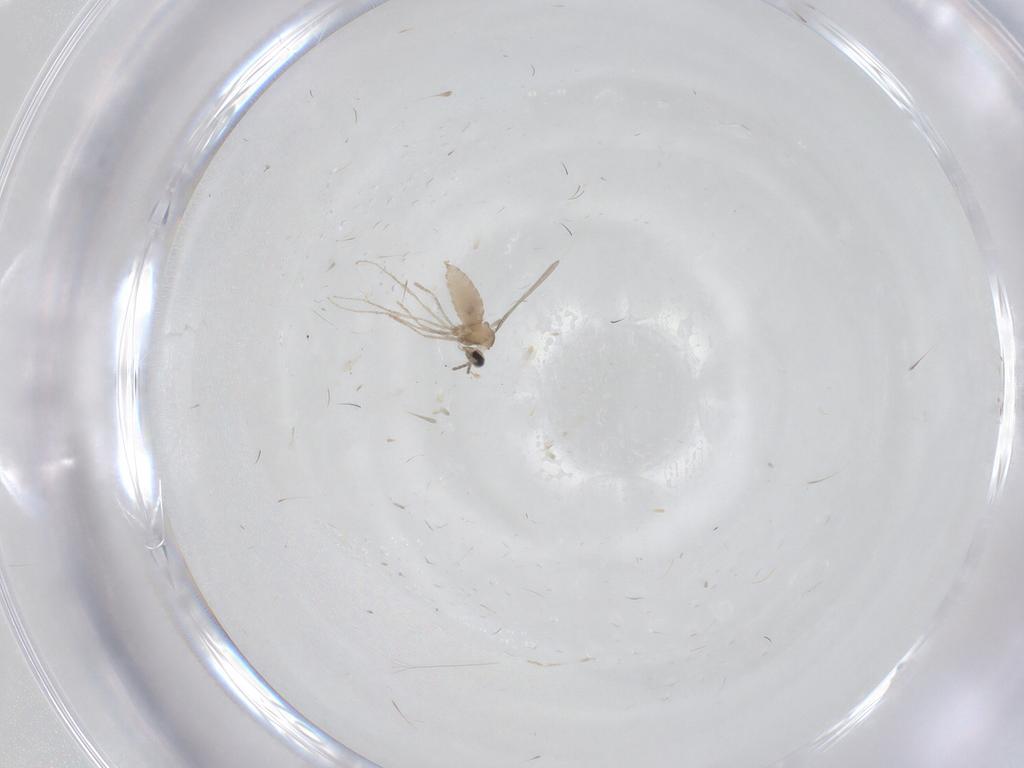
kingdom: Animalia
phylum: Arthropoda
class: Insecta
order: Diptera
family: Cecidomyiidae
